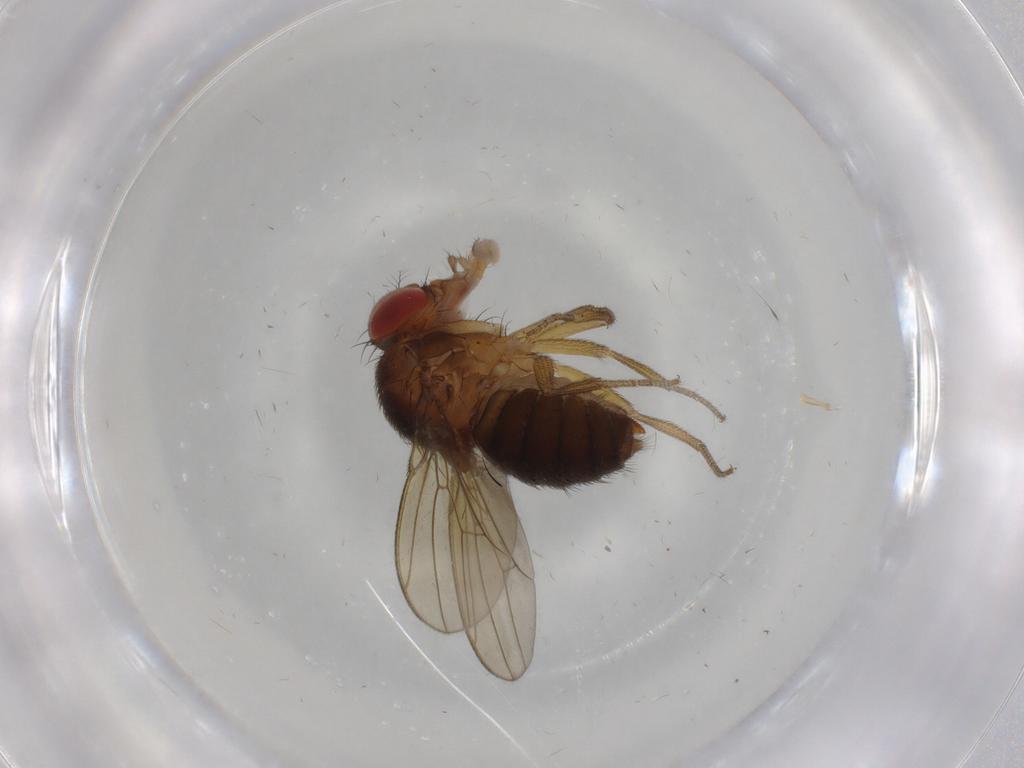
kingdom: Animalia
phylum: Arthropoda
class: Insecta
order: Diptera
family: Drosophilidae
